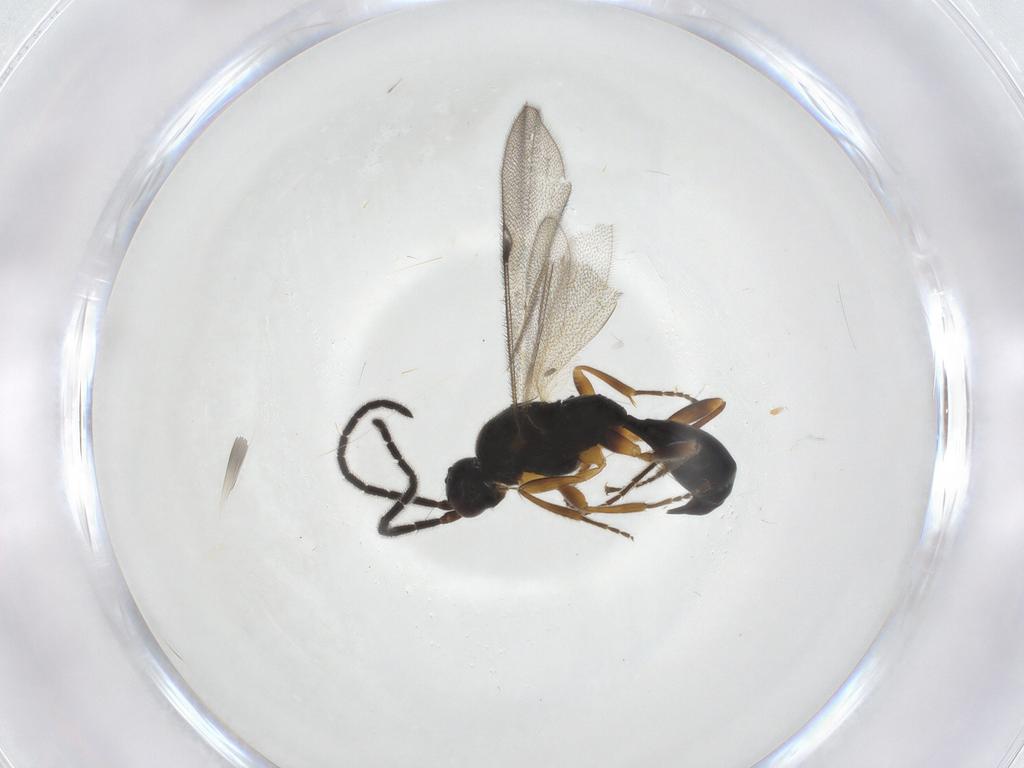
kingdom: Animalia
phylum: Arthropoda
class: Insecta
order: Hymenoptera
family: Proctotrupidae
